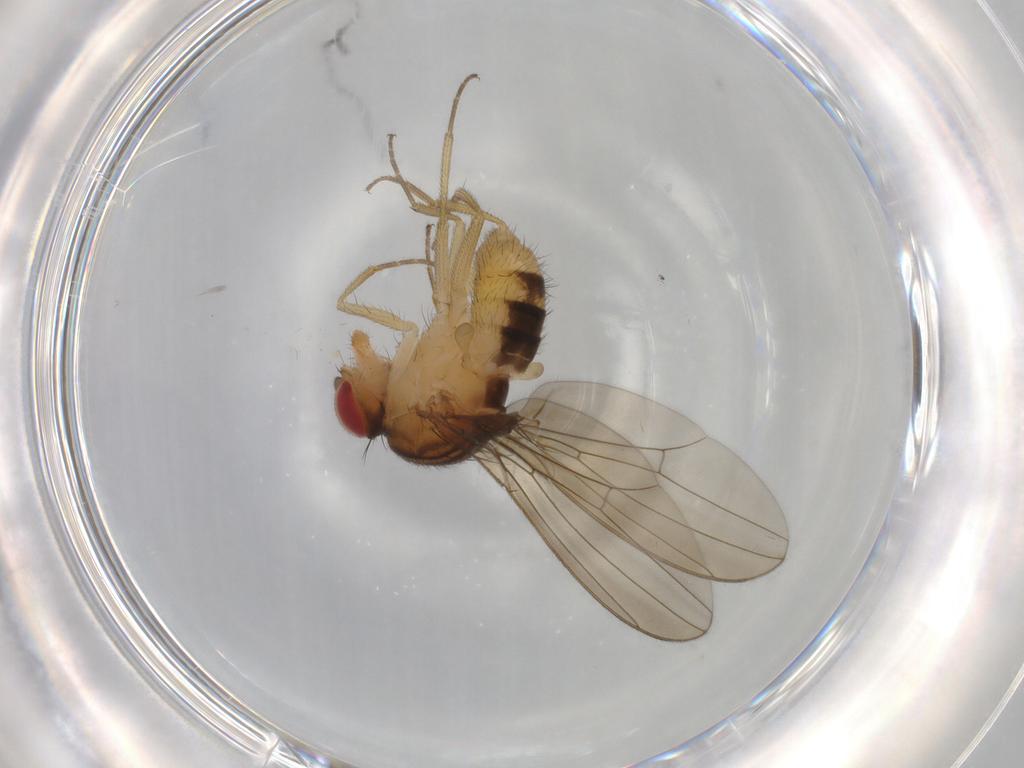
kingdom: Animalia
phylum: Arthropoda
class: Insecta
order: Diptera
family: Drosophilidae
